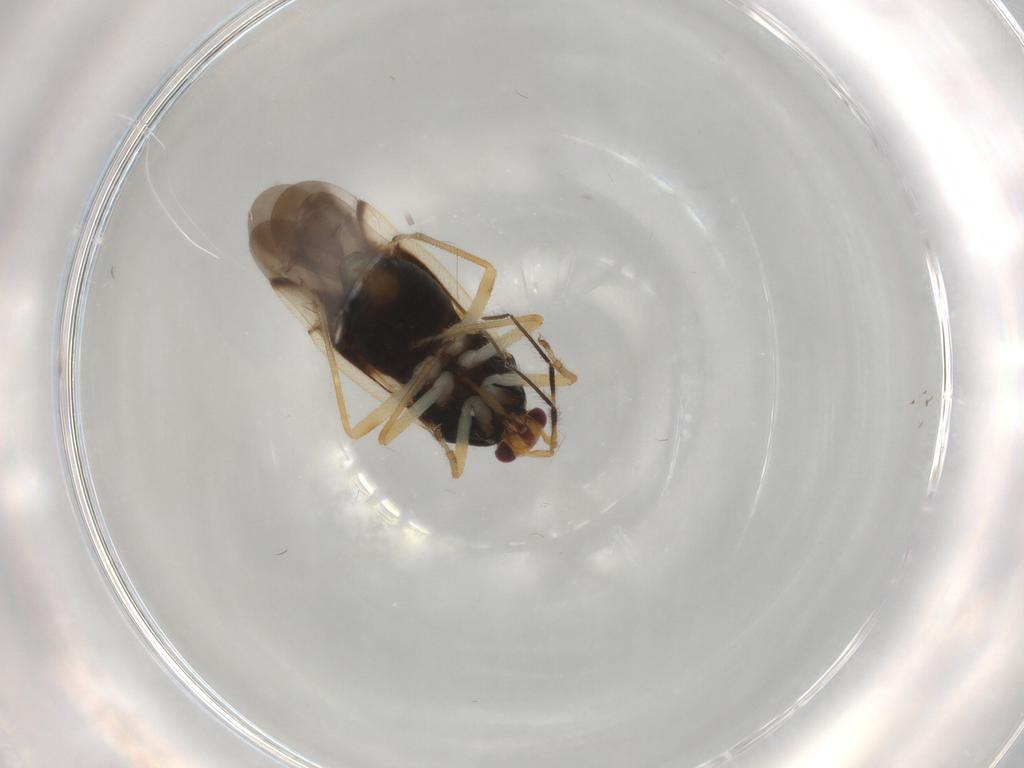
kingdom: Animalia
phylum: Arthropoda
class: Insecta
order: Hemiptera
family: Miridae
